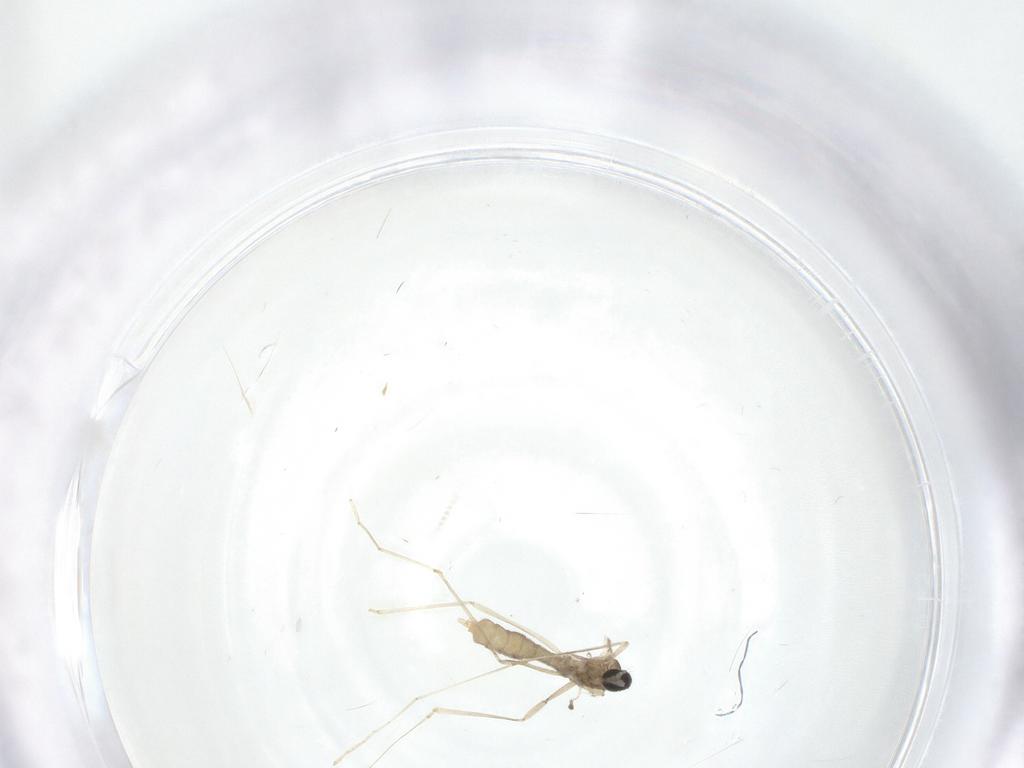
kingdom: Animalia
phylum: Arthropoda
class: Insecta
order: Diptera
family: Cecidomyiidae
